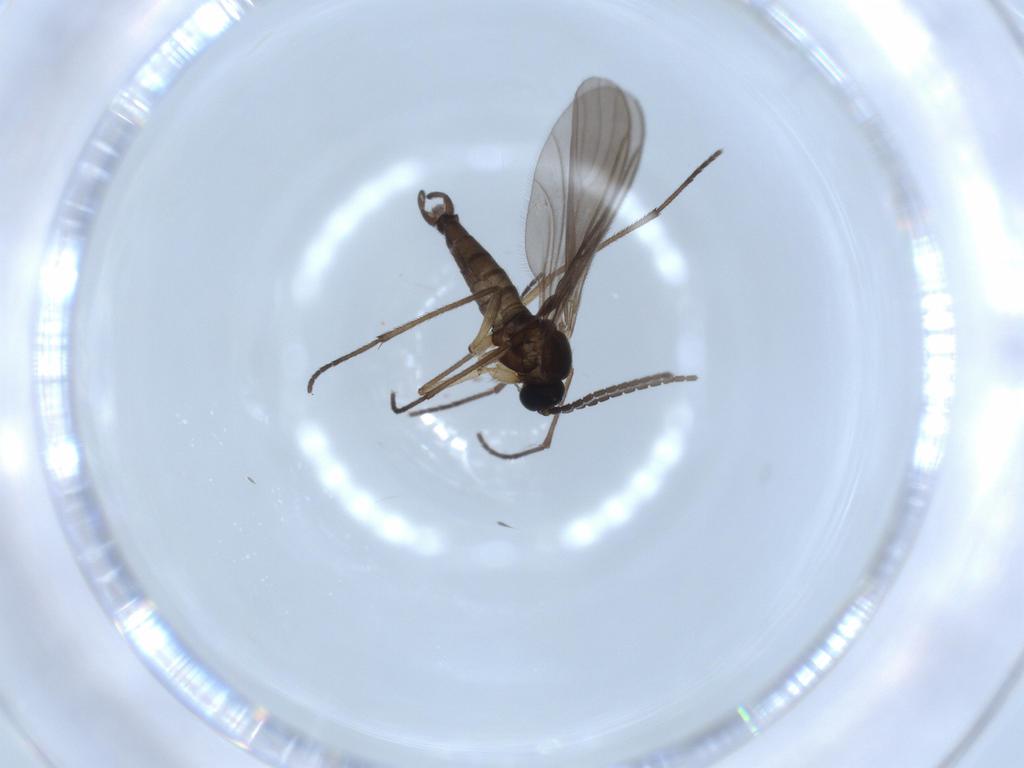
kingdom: Animalia
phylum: Arthropoda
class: Insecta
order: Diptera
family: Sciaridae
